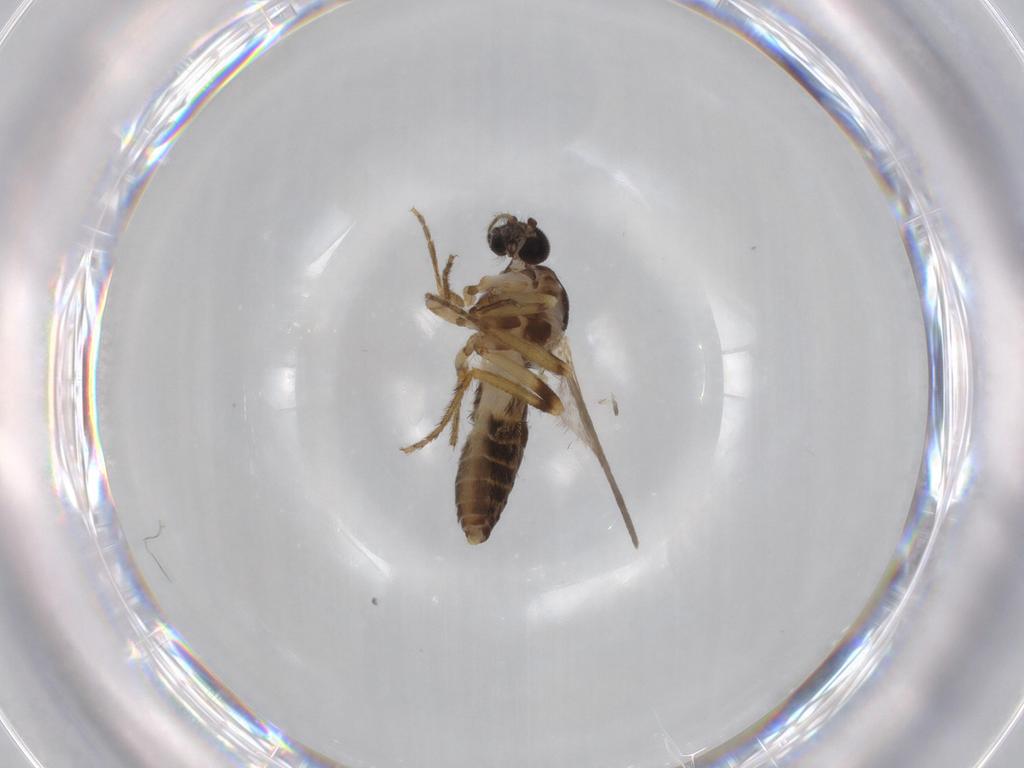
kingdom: Animalia
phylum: Arthropoda
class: Insecta
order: Diptera
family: Ceratopogonidae
